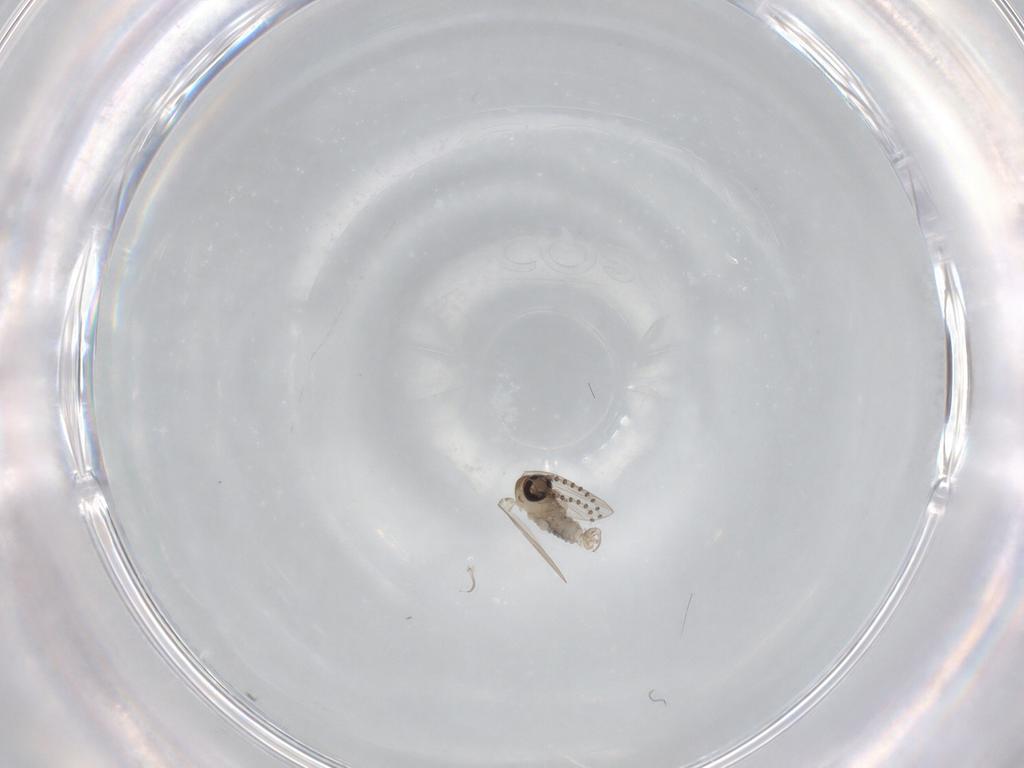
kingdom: Animalia
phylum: Arthropoda
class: Insecta
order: Diptera
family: Psychodidae
